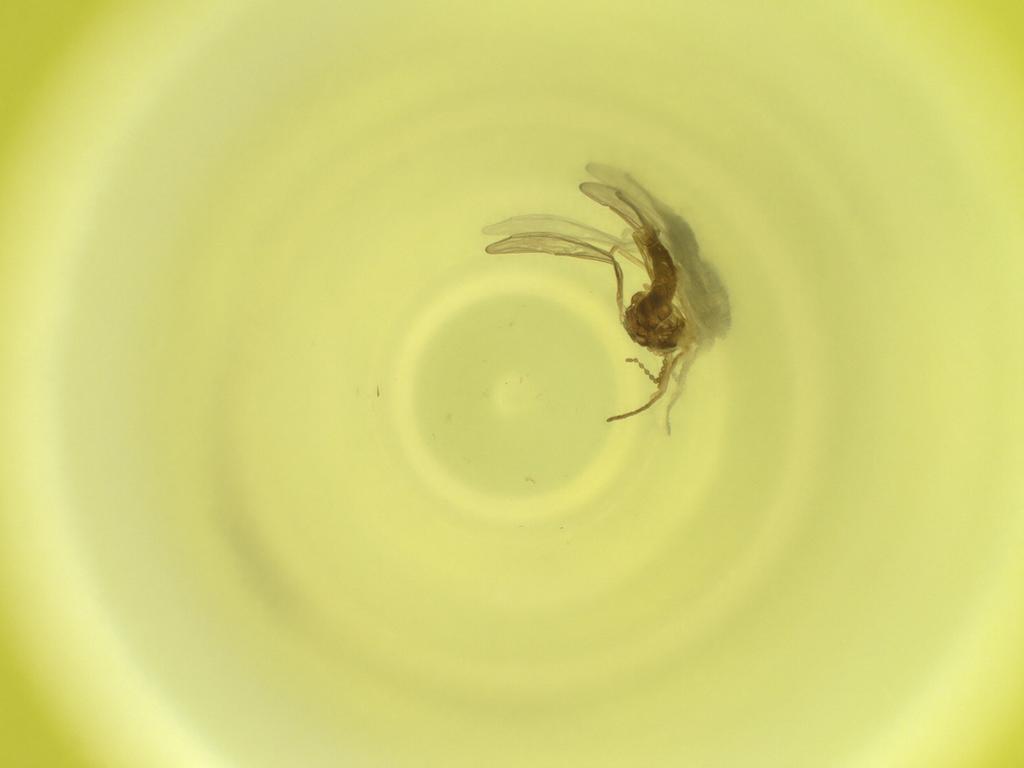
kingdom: Animalia
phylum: Arthropoda
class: Insecta
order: Diptera
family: Cecidomyiidae
